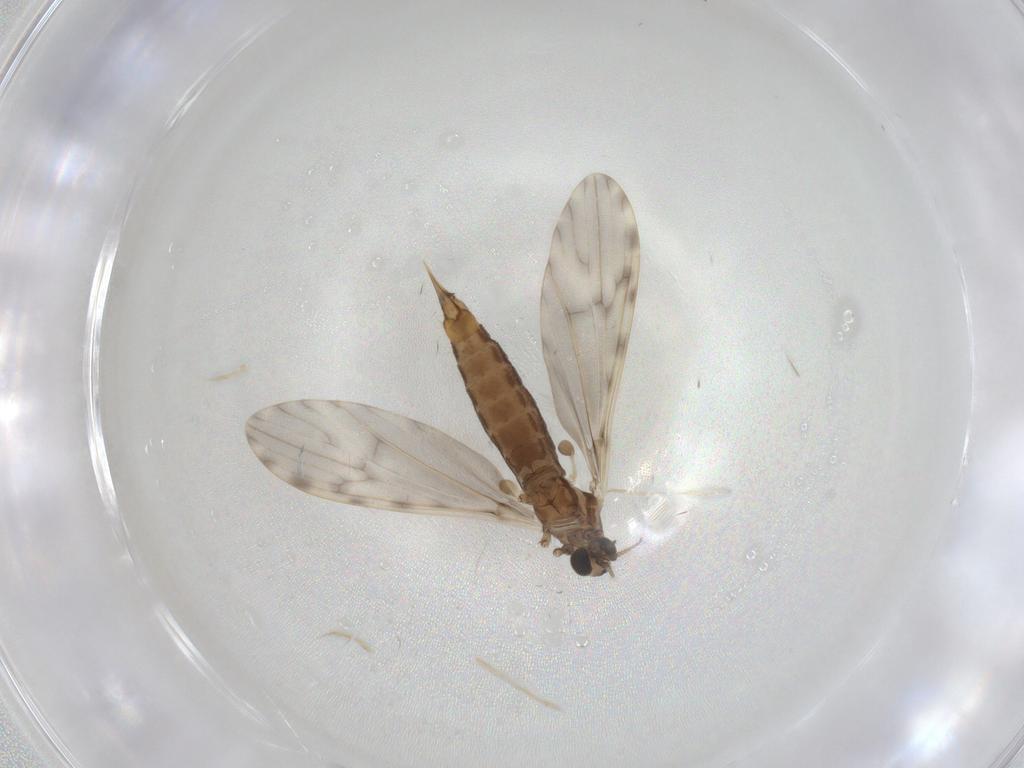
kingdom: Animalia
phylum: Arthropoda
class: Insecta
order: Diptera
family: Limoniidae
